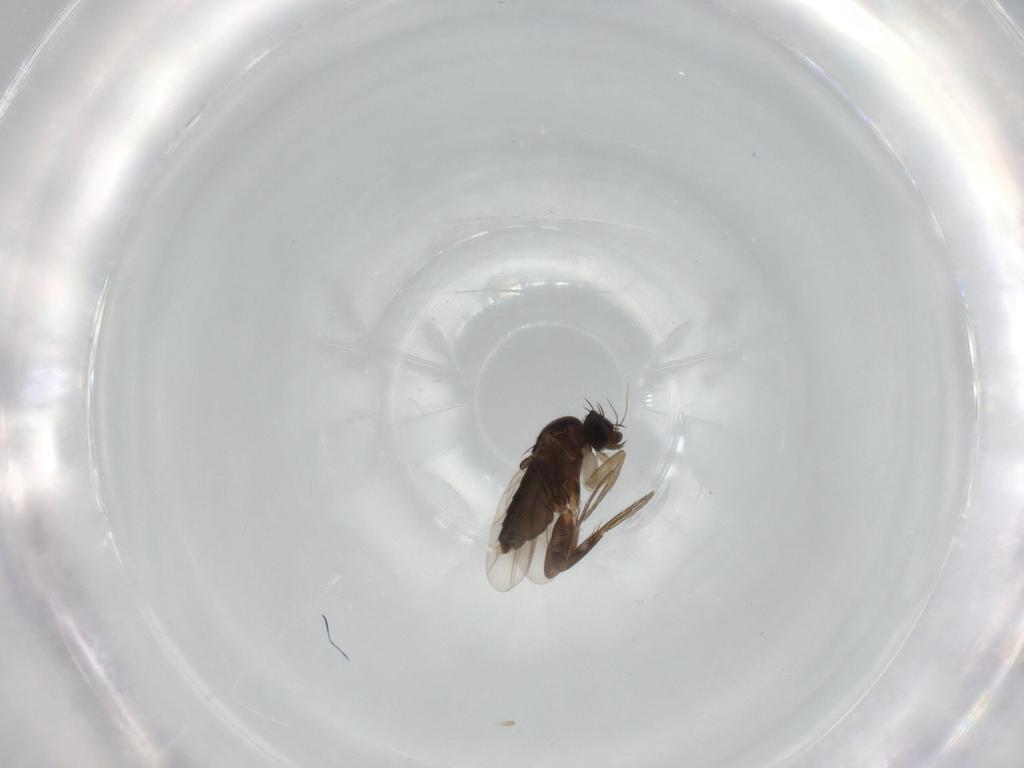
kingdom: Animalia
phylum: Arthropoda
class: Insecta
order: Diptera
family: Phoridae
